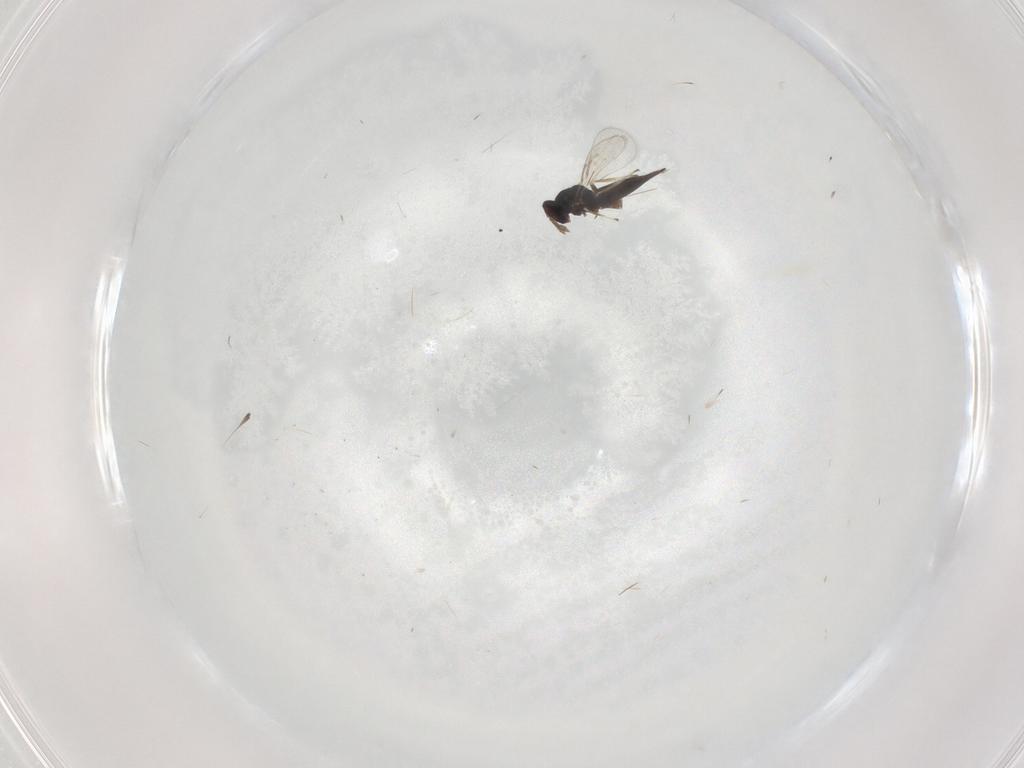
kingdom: Animalia
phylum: Arthropoda
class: Insecta
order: Hymenoptera
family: Eulophidae
